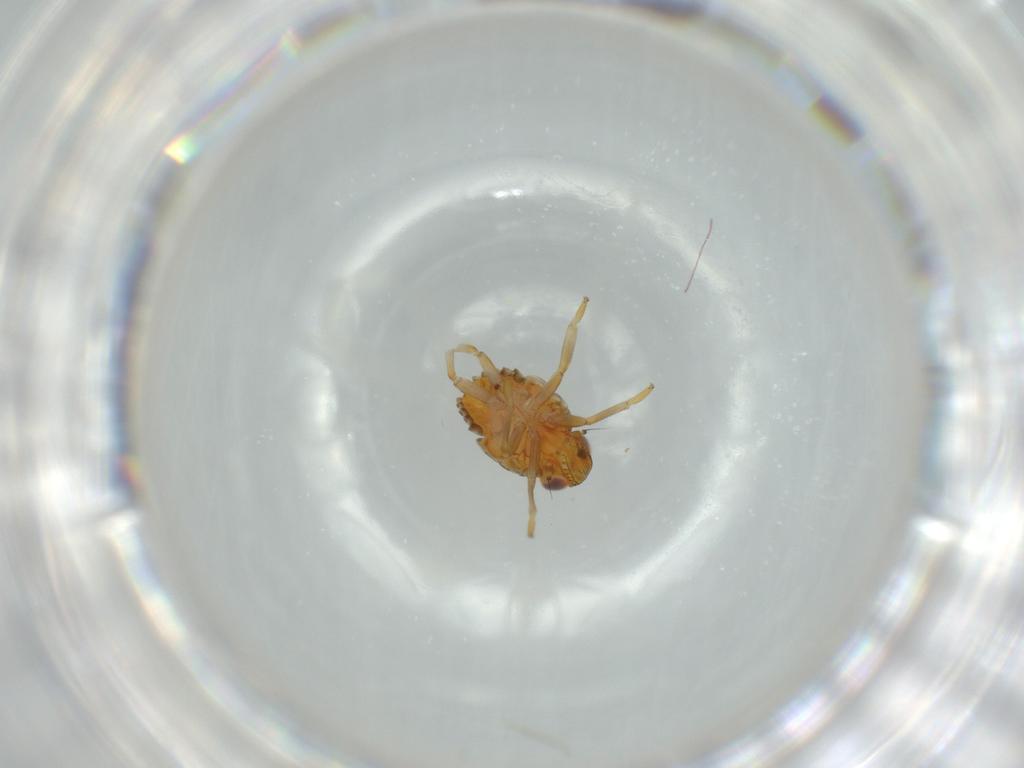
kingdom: Animalia
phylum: Arthropoda
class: Insecta
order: Hemiptera
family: Issidae
